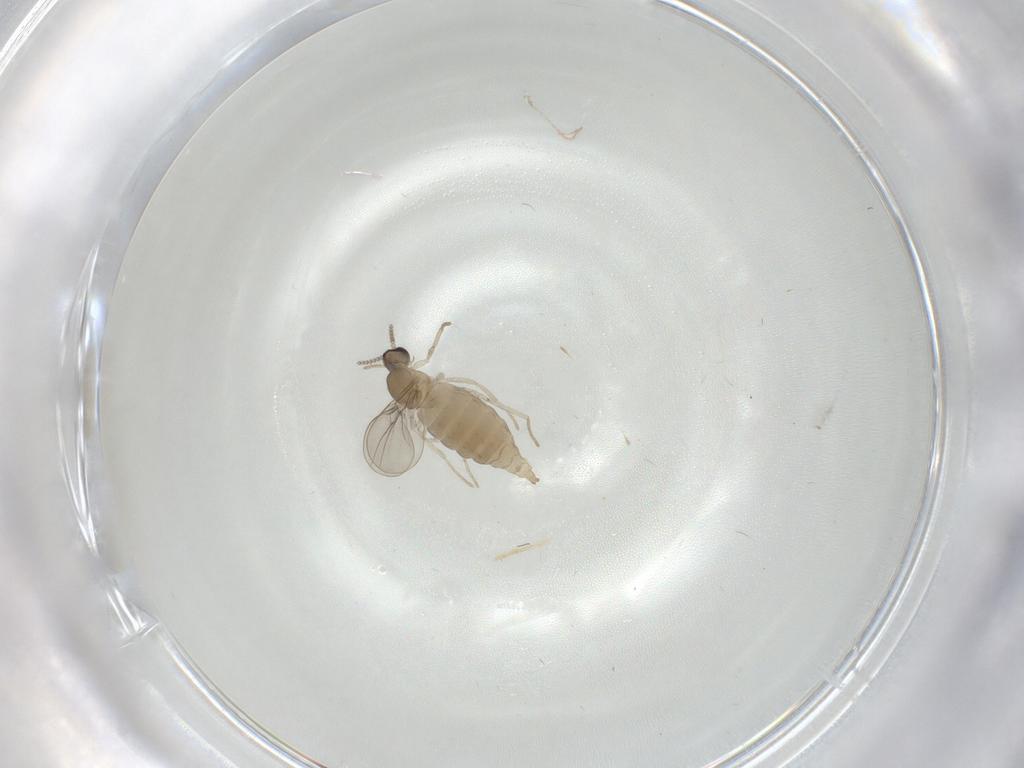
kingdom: Animalia
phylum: Arthropoda
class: Insecta
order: Diptera
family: Cecidomyiidae
